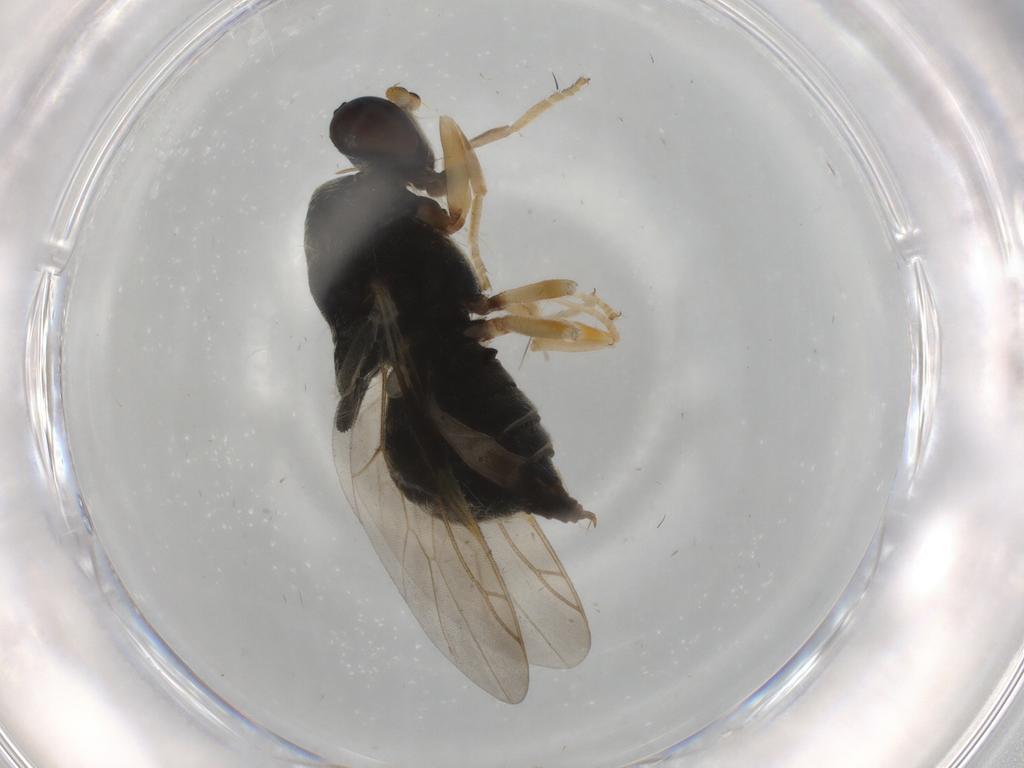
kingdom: Animalia
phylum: Arthropoda
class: Insecta
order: Diptera
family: Stratiomyidae
